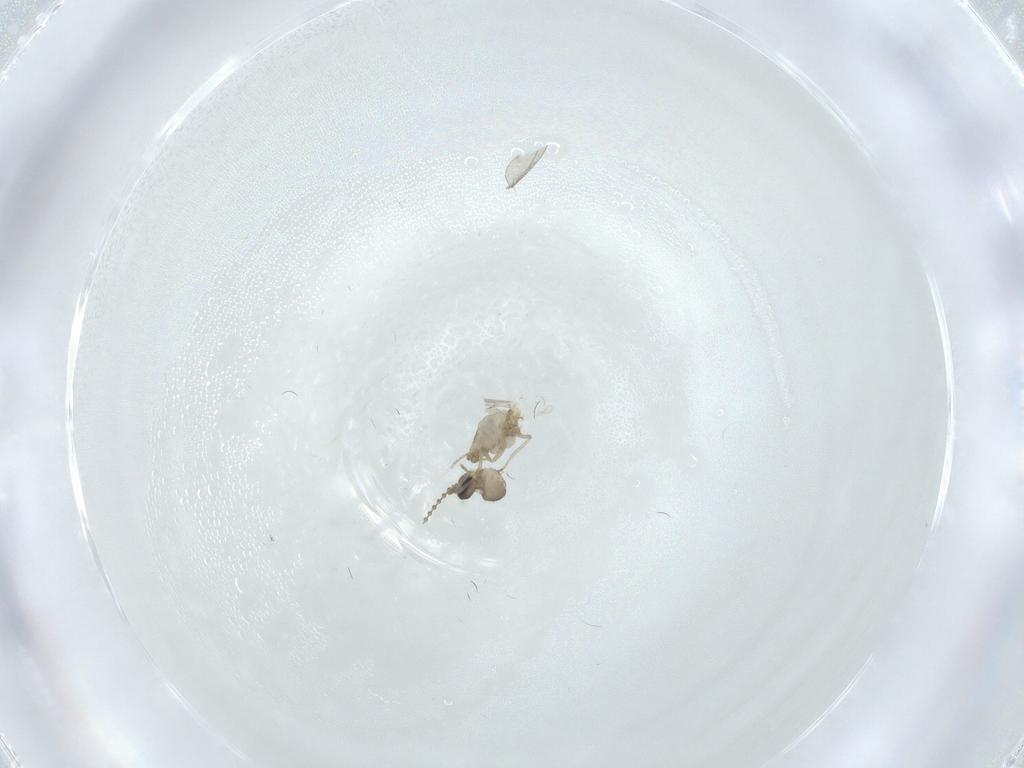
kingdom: Animalia
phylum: Arthropoda
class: Insecta
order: Diptera
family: Cecidomyiidae
